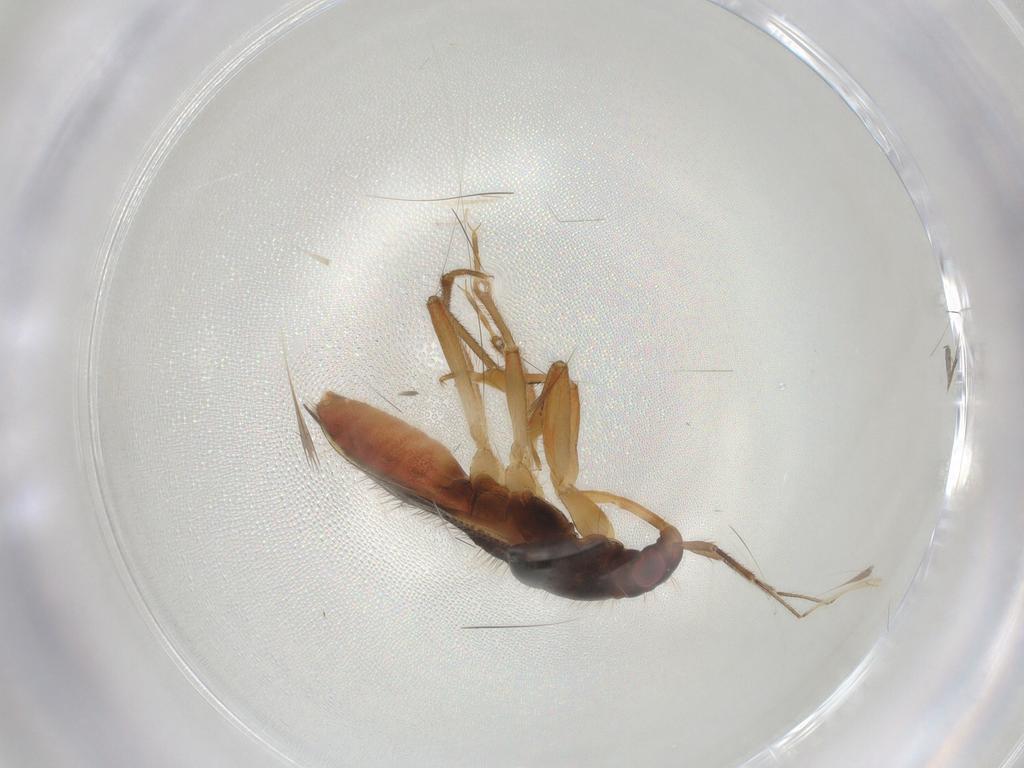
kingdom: Animalia
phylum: Arthropoda
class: Insecta
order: Hemiptera
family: Nabidae
